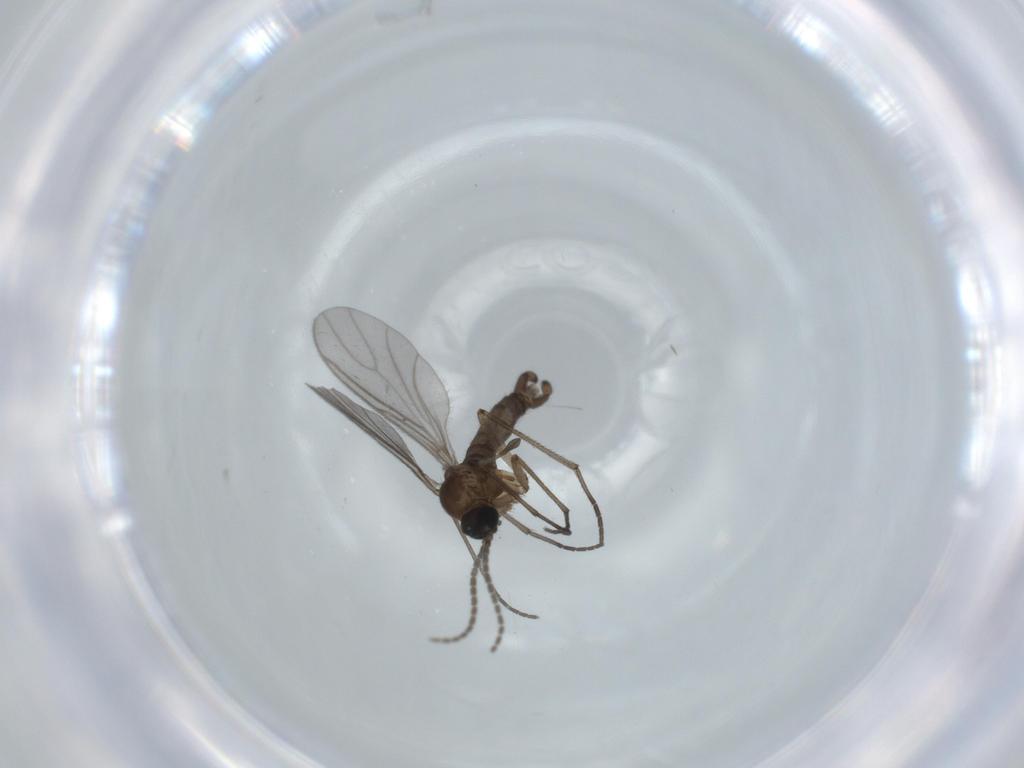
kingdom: Animalia
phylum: Arthropoda
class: Insecta
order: Diptera
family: Sciaridae
